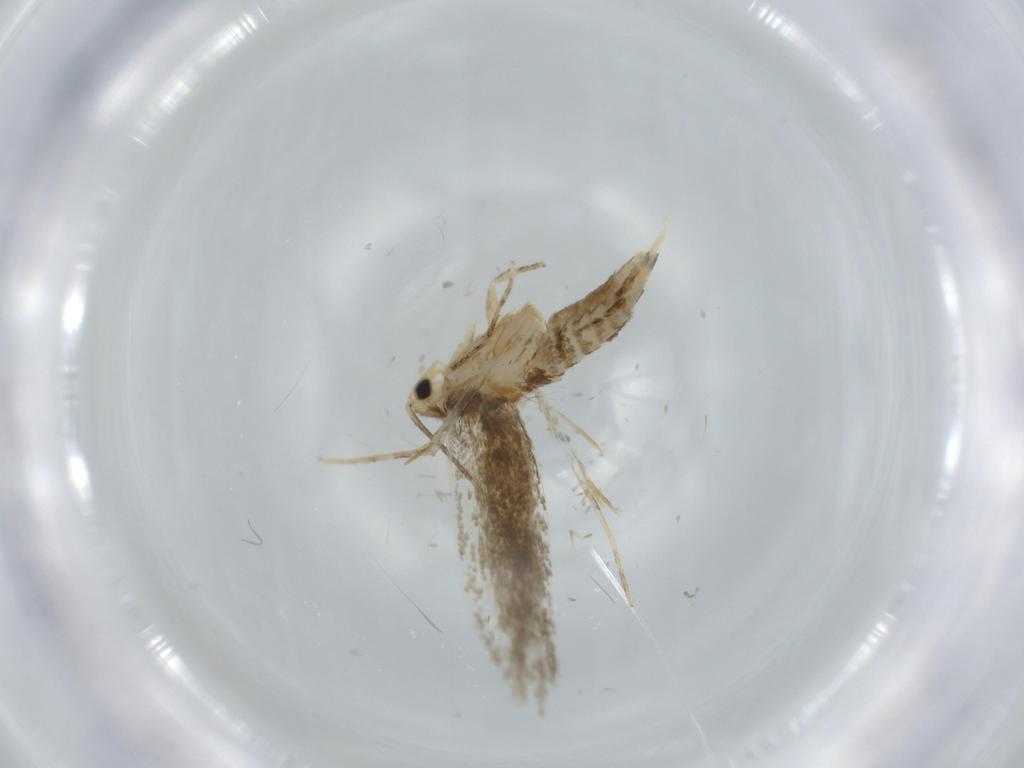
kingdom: Animalia
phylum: Arthropoda
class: Insecta
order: Lepidoptera
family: Tineidae
